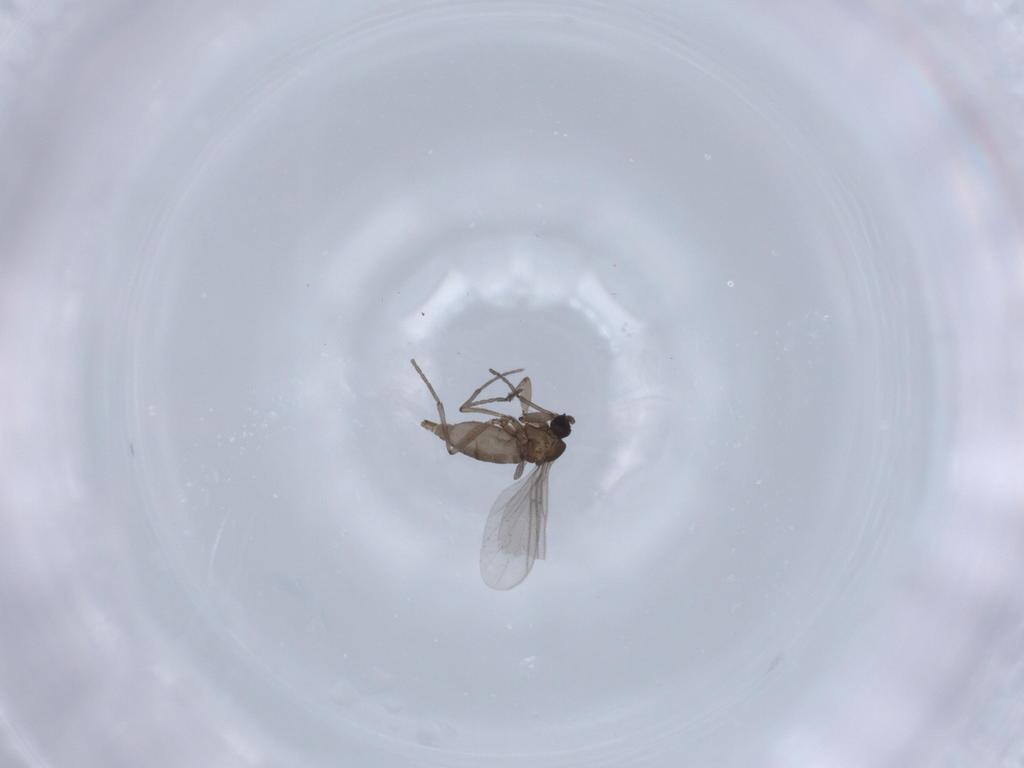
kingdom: Animalia
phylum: Arthropoda
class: Insecta
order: Diptera
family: Sciaridae
